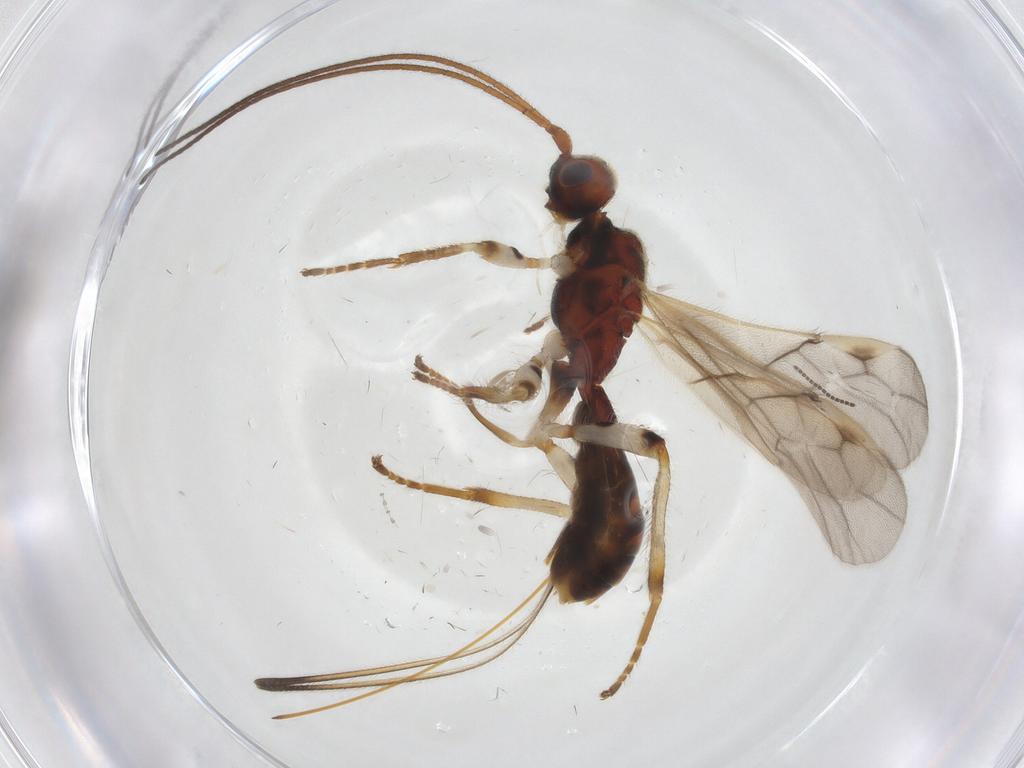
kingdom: Animalia
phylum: Arthropoda
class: Insecta
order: Hymenoptera
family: Braconidae
